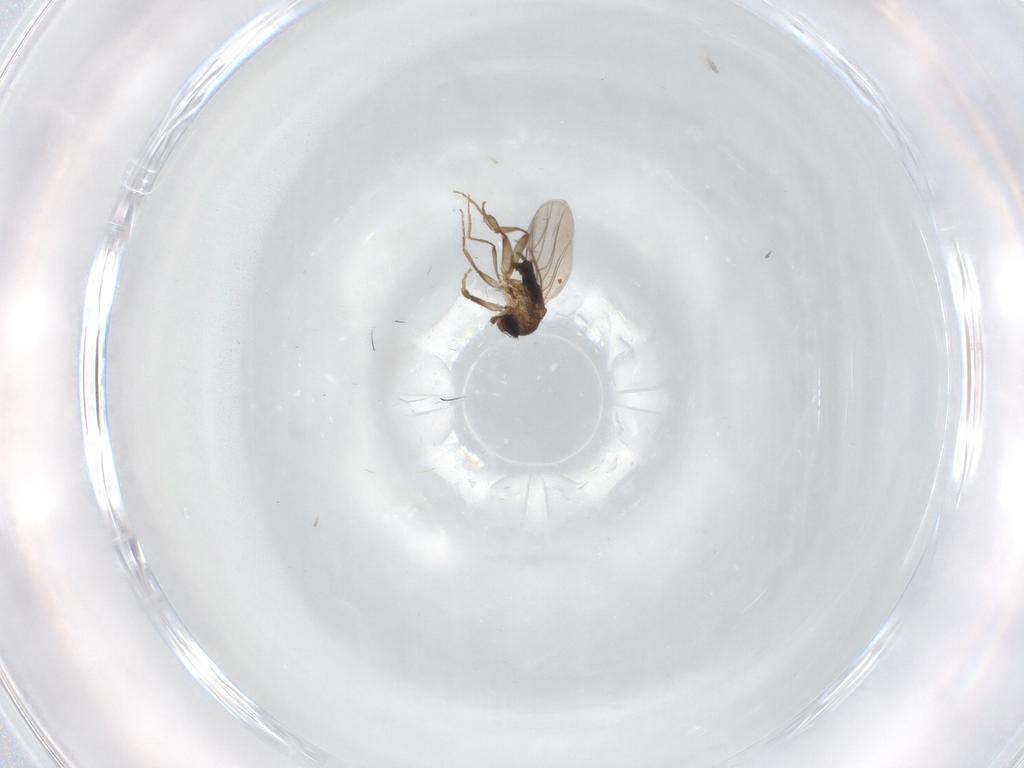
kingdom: Animalia
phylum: Arthropoda
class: Insecta
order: Diptera
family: Phoridae
